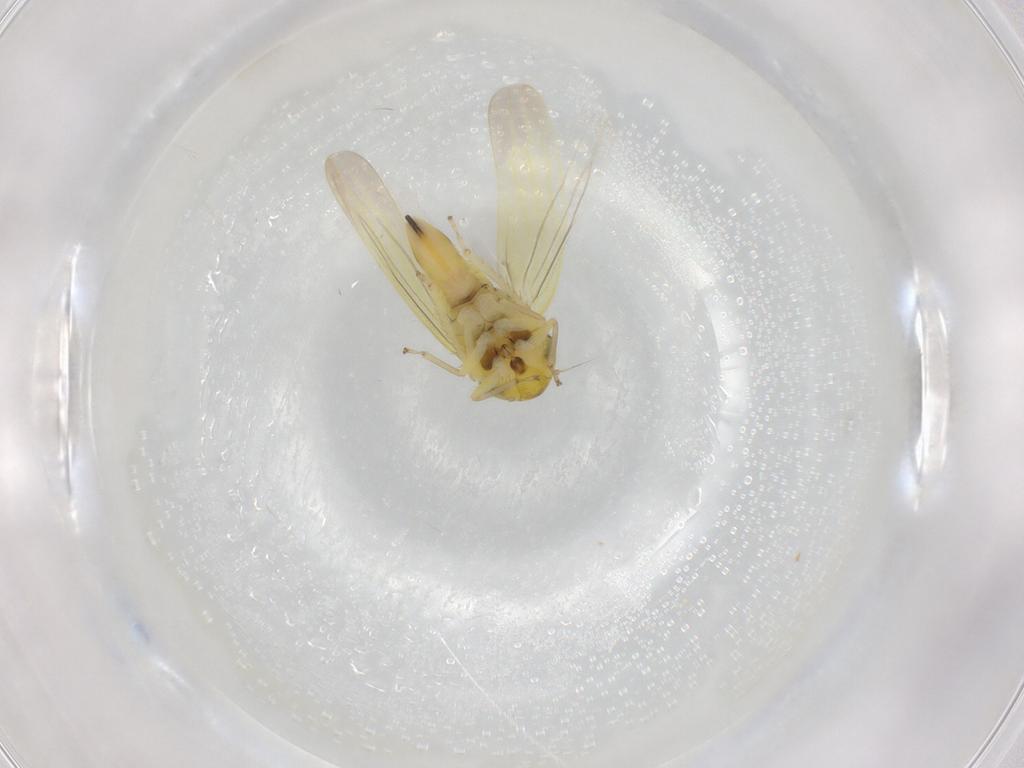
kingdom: Animalia
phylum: Arthropoda
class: Insecta
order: Hemiptera
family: Cicadellidae
